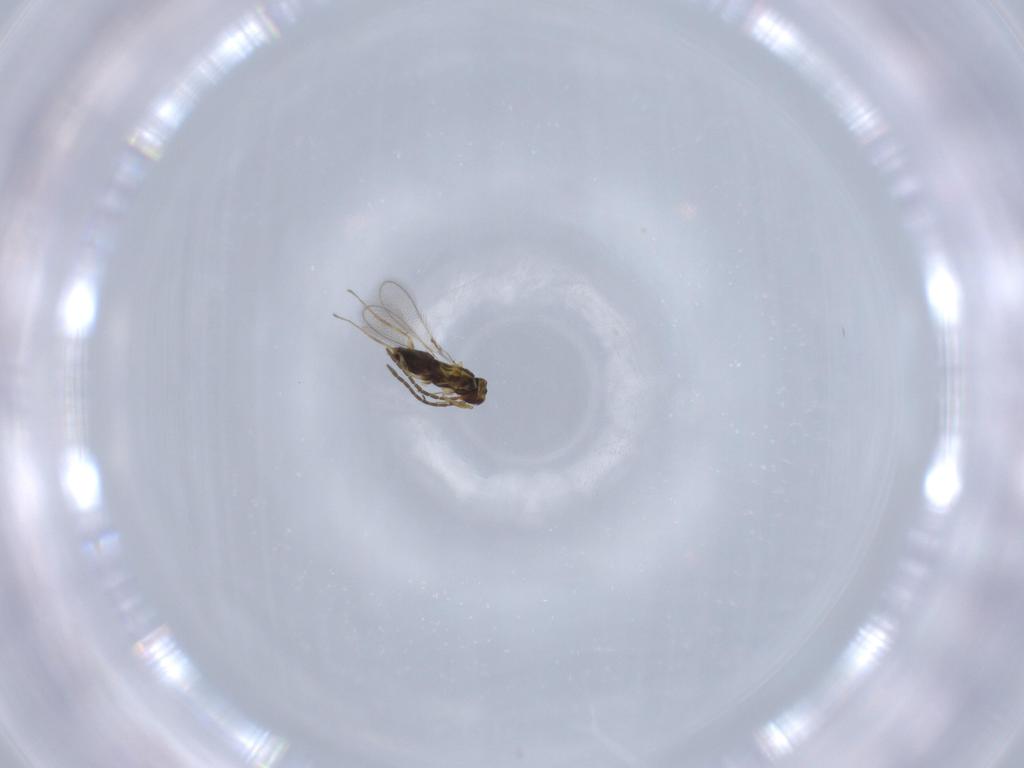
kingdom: Animalia
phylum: Arthropoda
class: Insecta
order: Hymenoptera
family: Mymaridae
